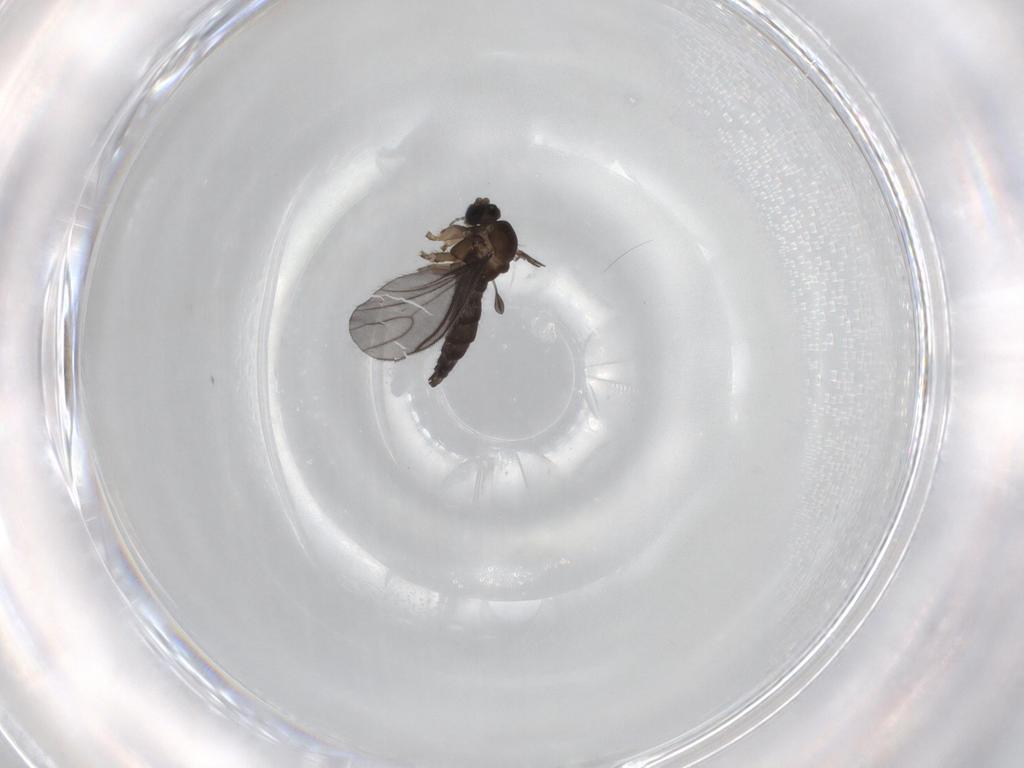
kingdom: Animalia
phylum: Arthropoda
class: Insecta
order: Diptera
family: Sciaridae
